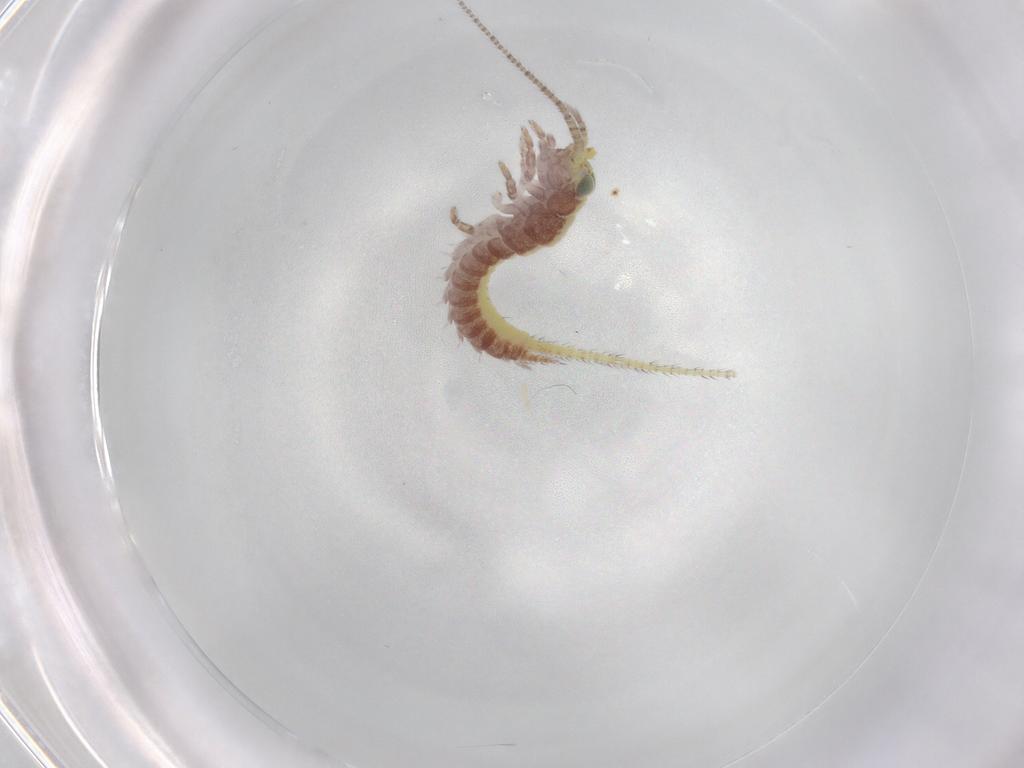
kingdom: Animalia
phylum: Arthropoda
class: Insecta
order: Archaeognatha
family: Machilidae
